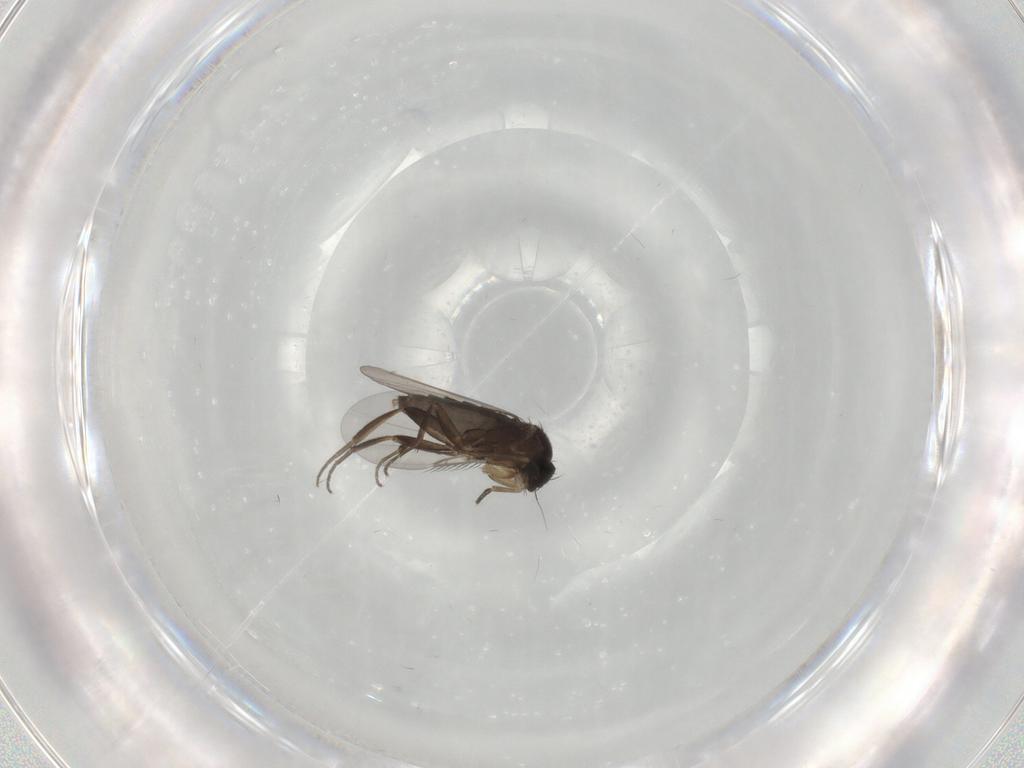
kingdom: Animalia
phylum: Arthropoda
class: Insecta
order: Diptera
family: Phoridae
